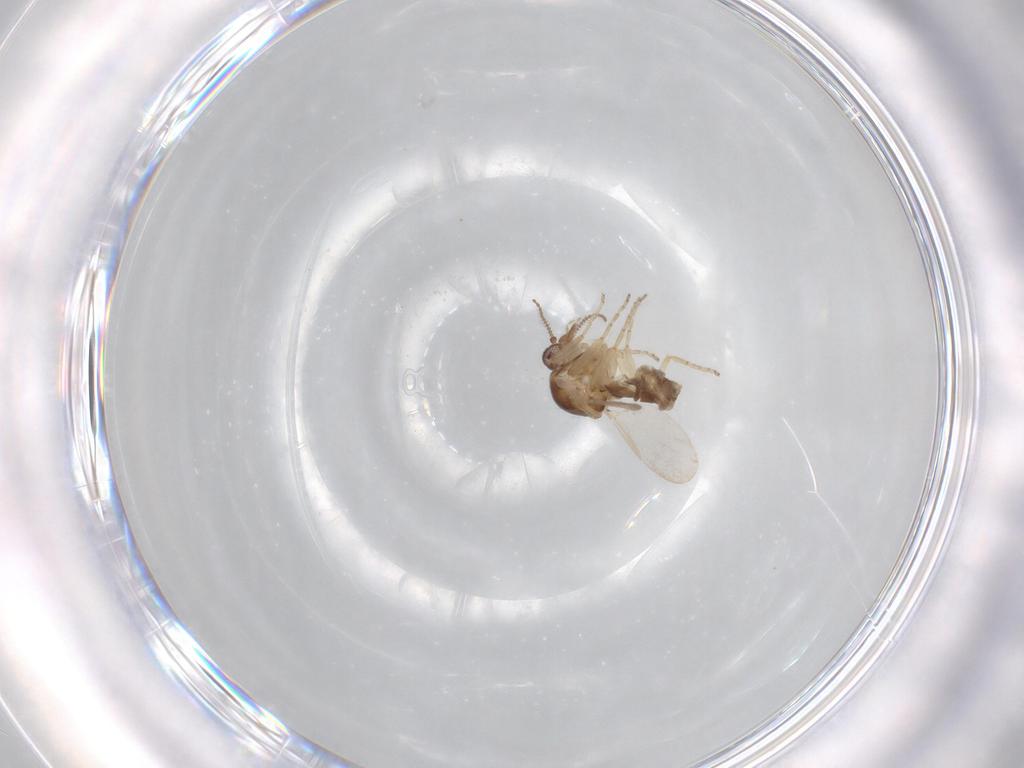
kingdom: Animalia
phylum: Arthropoda
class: Insecta
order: Diptera
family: Ceratopogonidae
